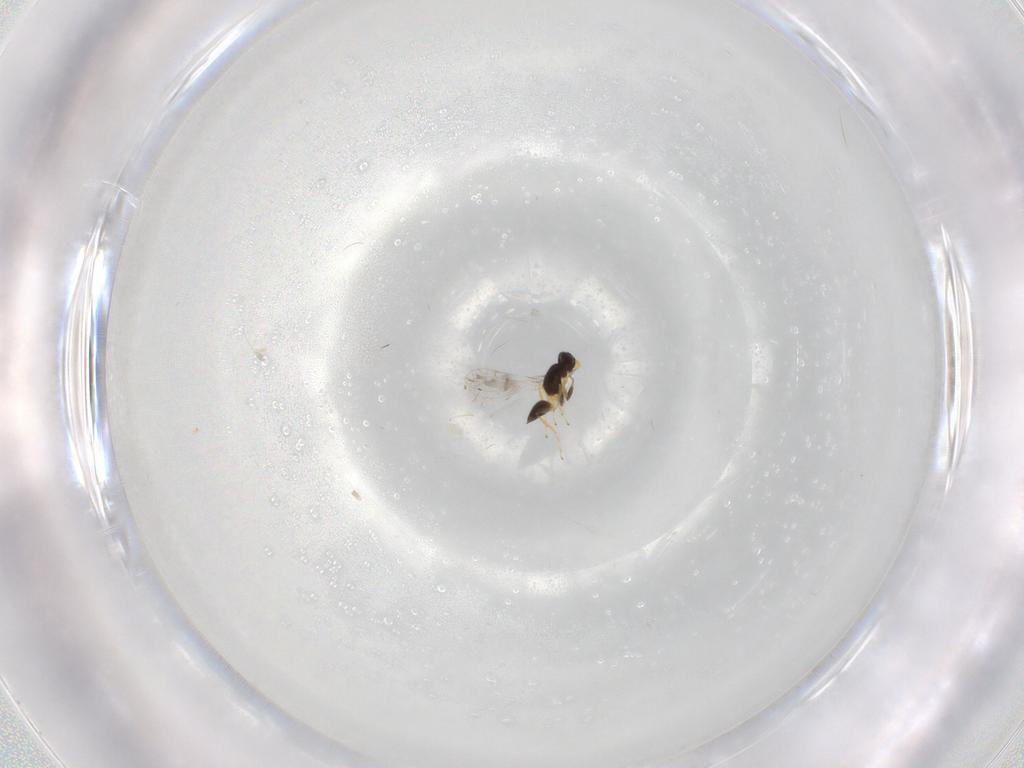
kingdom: Animalia
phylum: Arthropoda
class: Insecta
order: Hymenoptera
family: Mymaridae
